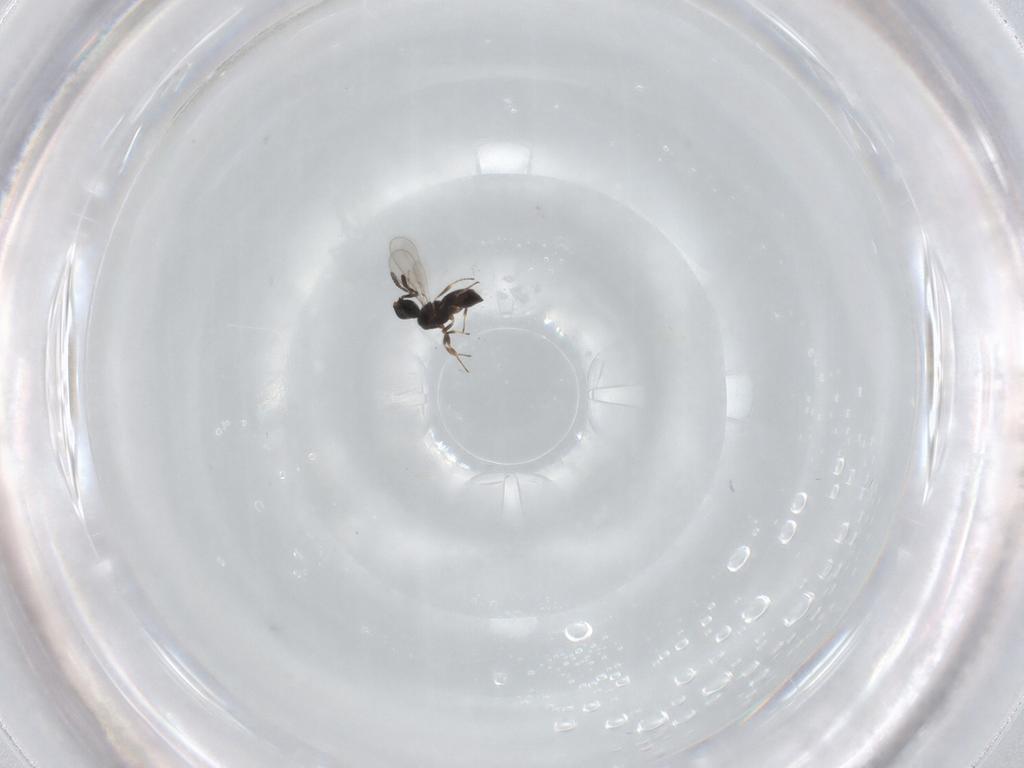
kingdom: Animalia
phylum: Arthropoda
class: Insecta
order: Hymenoptera
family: Scelionidae
